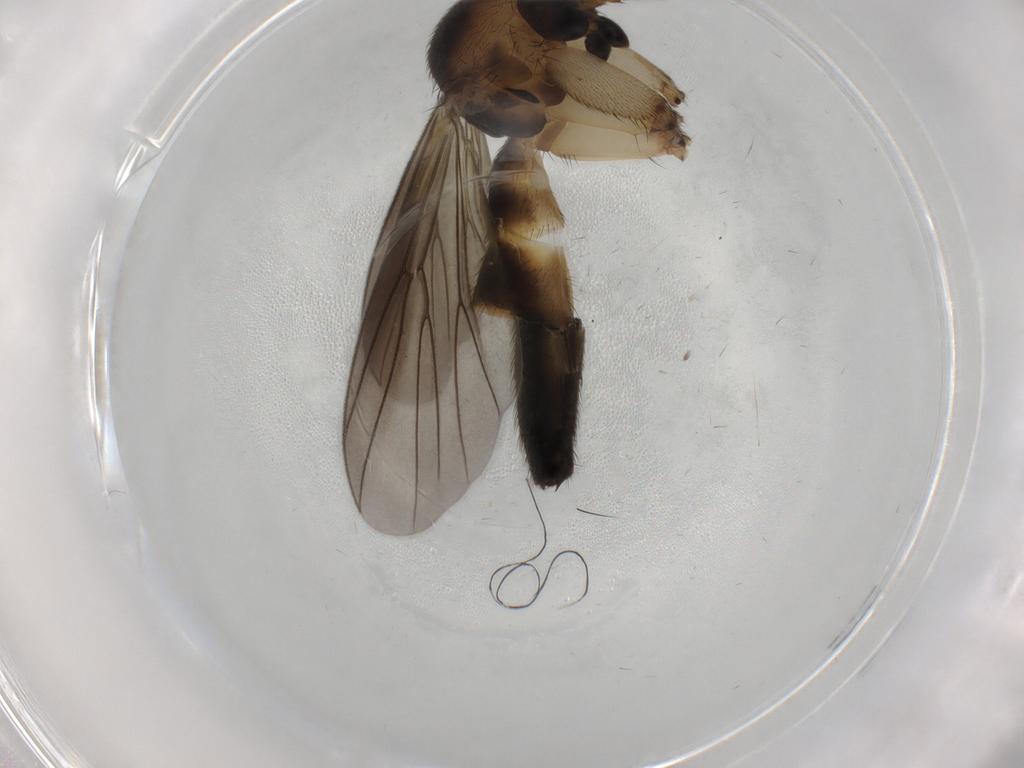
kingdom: Animalia
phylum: Arthropoda
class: Insecta
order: Diptera
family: Mycetophilidae
